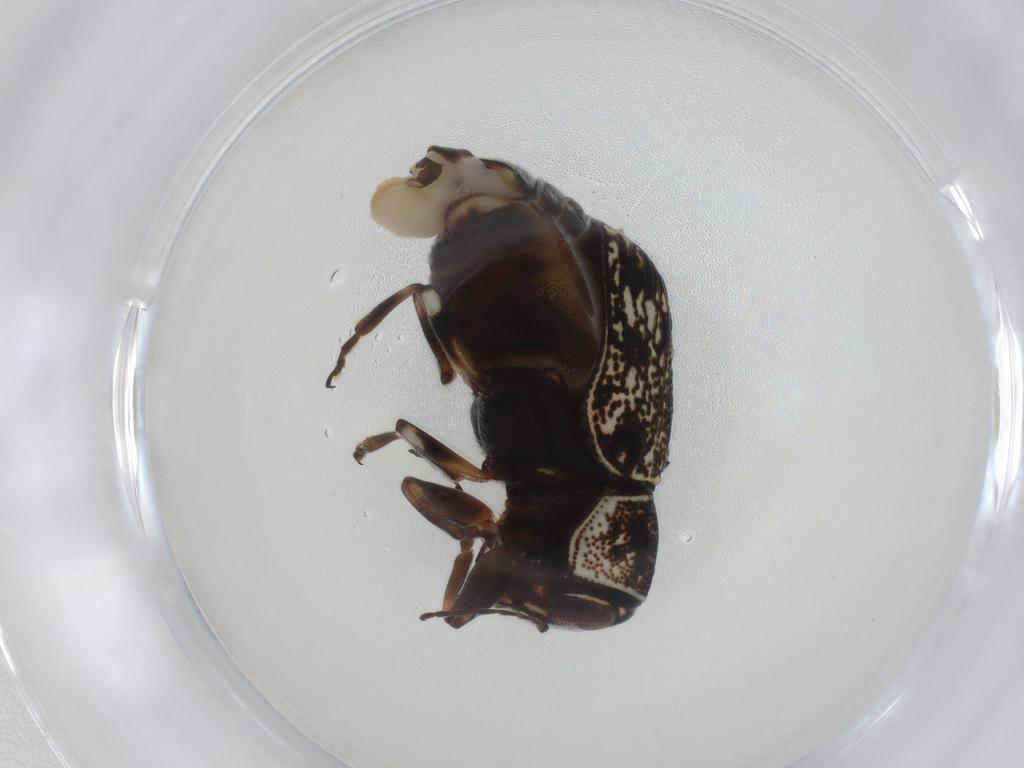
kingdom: Animalia
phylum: Arthropoda
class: Insecta
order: Coleoptera
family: Chrysomelidae
